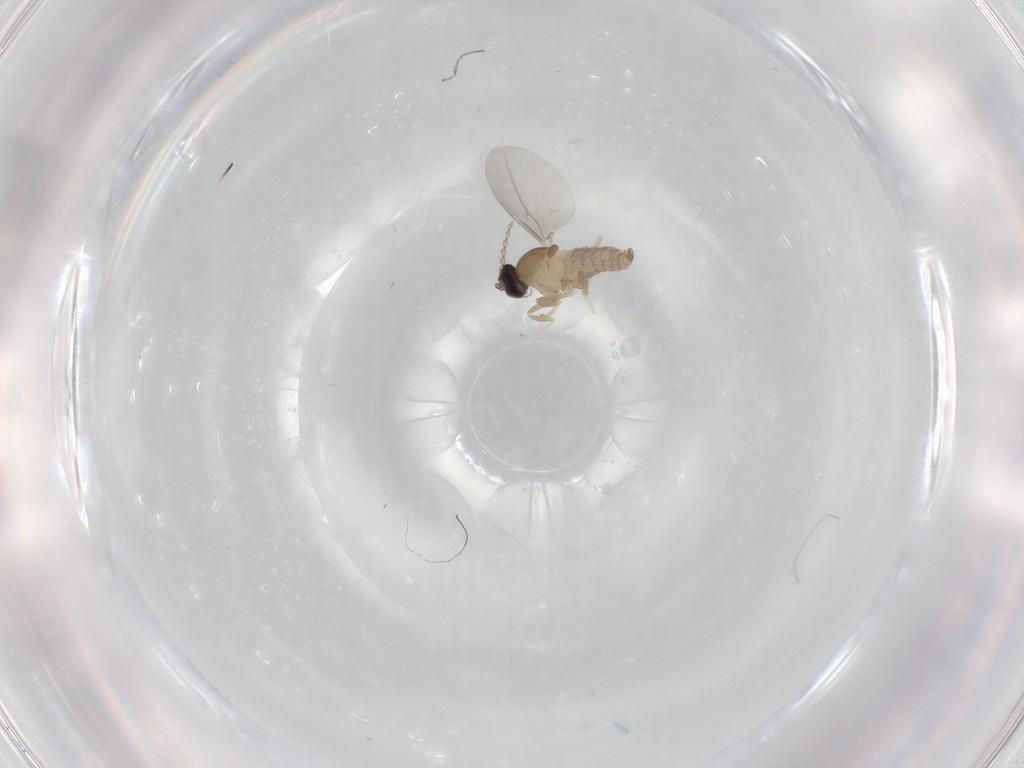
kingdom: Animalia
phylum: Arthropoda
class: Insecta
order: Diptera
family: Cecidomyiidae
